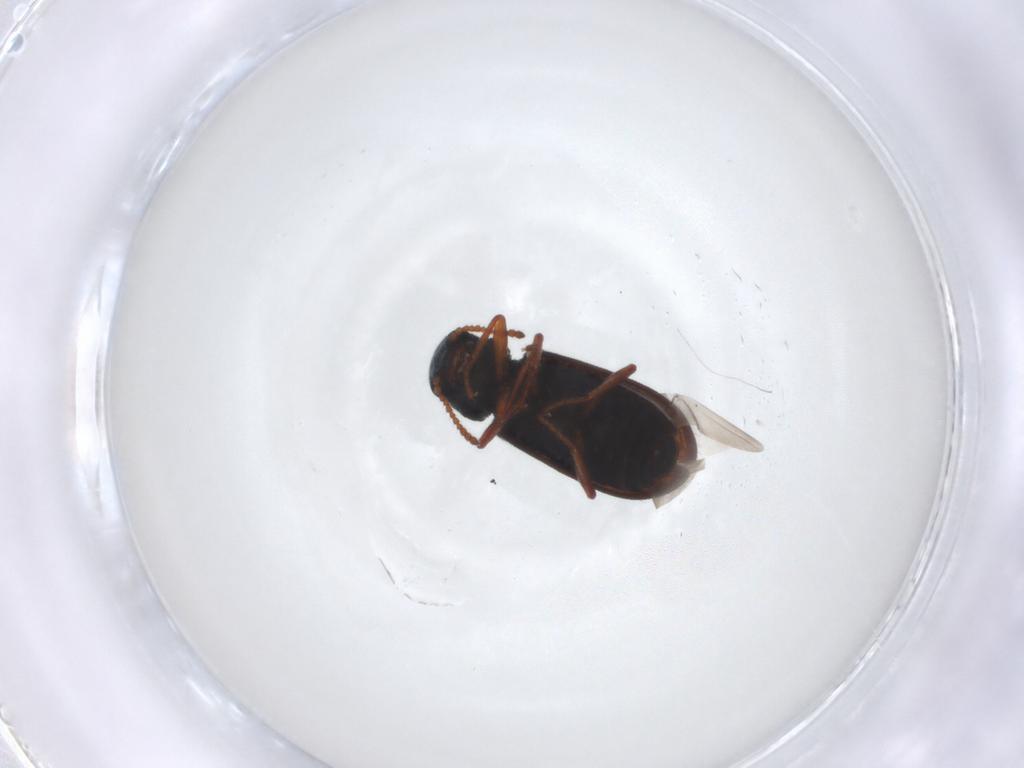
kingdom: Animalia
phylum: Arthropoda
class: Insecta
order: Coleoptera
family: Melyridae
